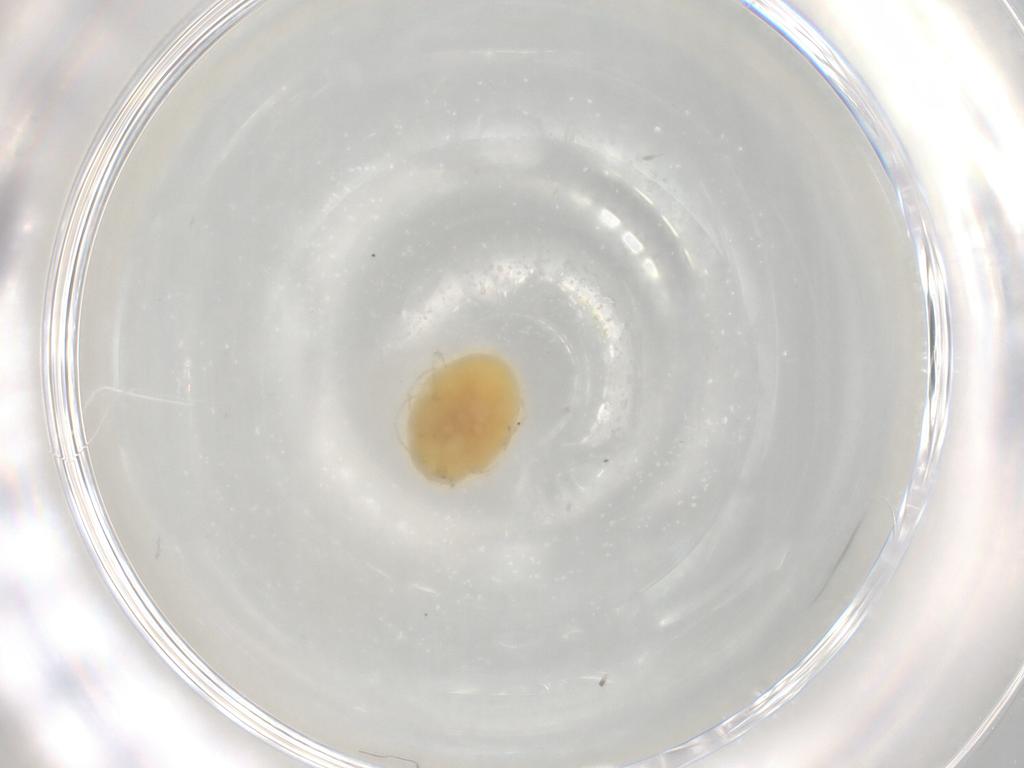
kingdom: Animalia
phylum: Arthropoda
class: Arachnida
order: Trombidiformes
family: Erythraeidae
